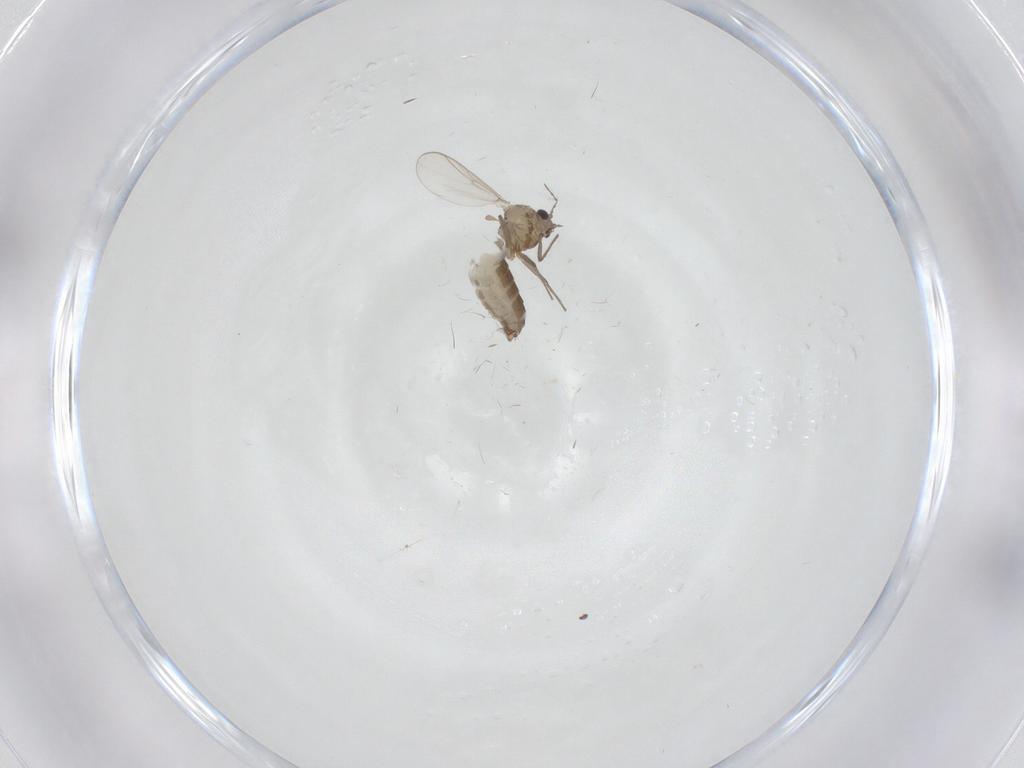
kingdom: Animalia
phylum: Arthropoda
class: Insecta
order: Diptera
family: Chironomidae
